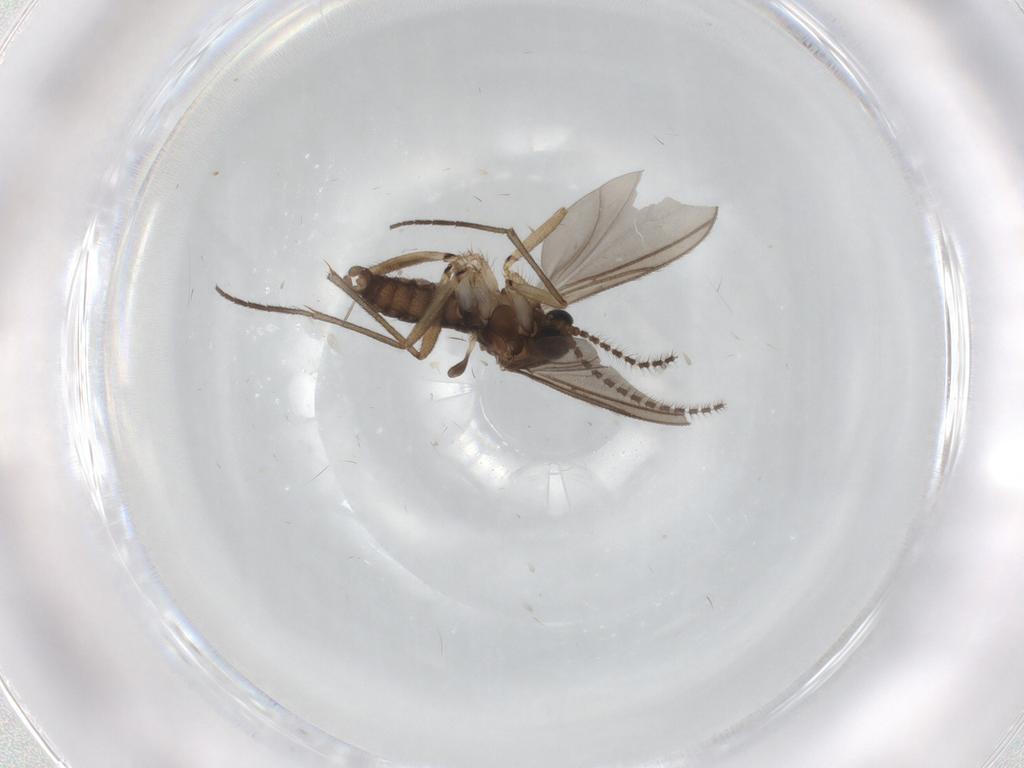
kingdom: Animalia
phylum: Arthropoda
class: Insecta
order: Diptera
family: Sciaridae
